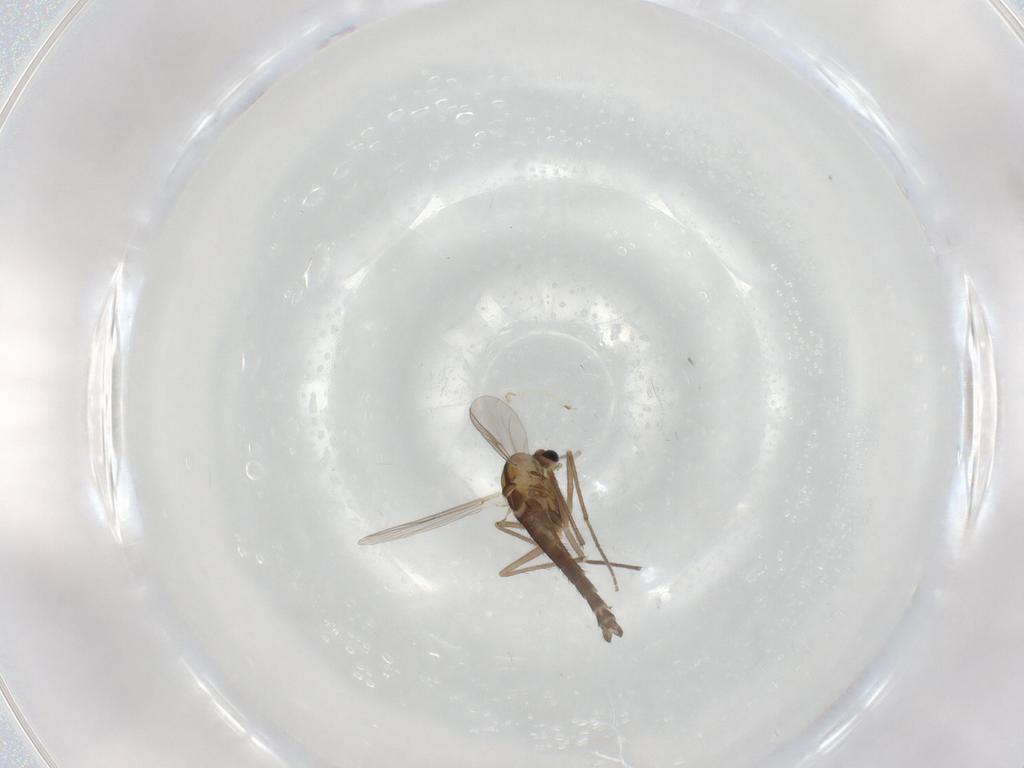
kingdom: Animalia
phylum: Arthropoda
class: Insecta
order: Diptera
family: Chironomidae
